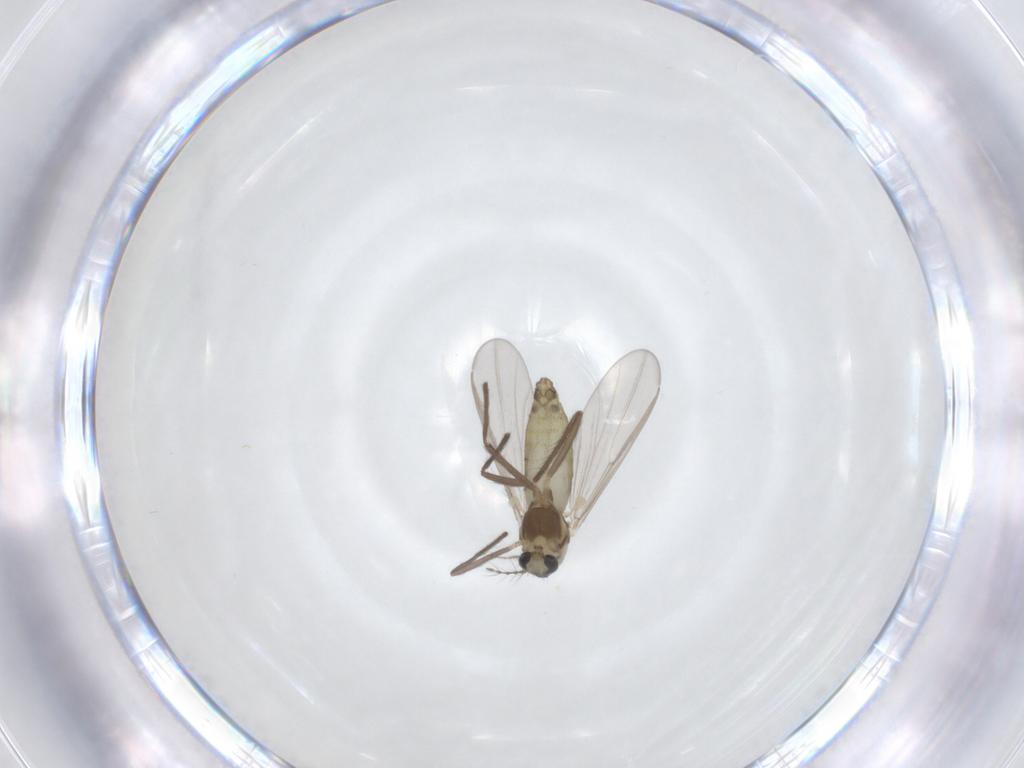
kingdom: Animalia
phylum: Arthropoda
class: Insecta
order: Diptera
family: Chironomidae
